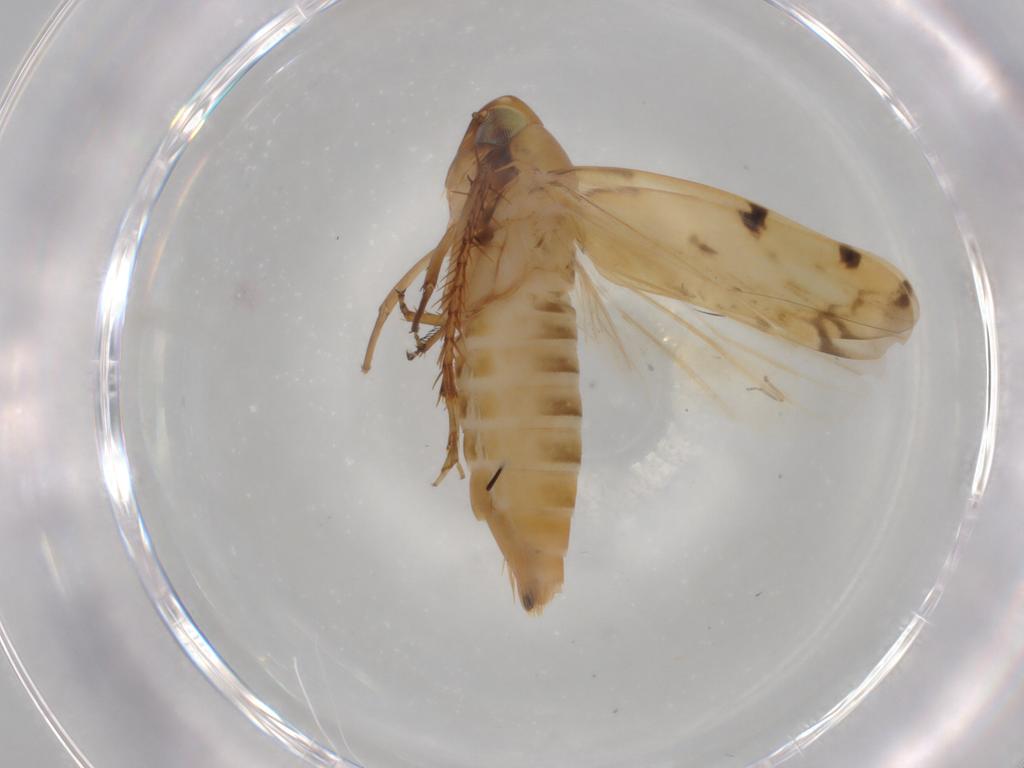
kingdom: Animalia
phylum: Arthropoda
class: Insecta
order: Hemiptera
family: Cicadellidae
